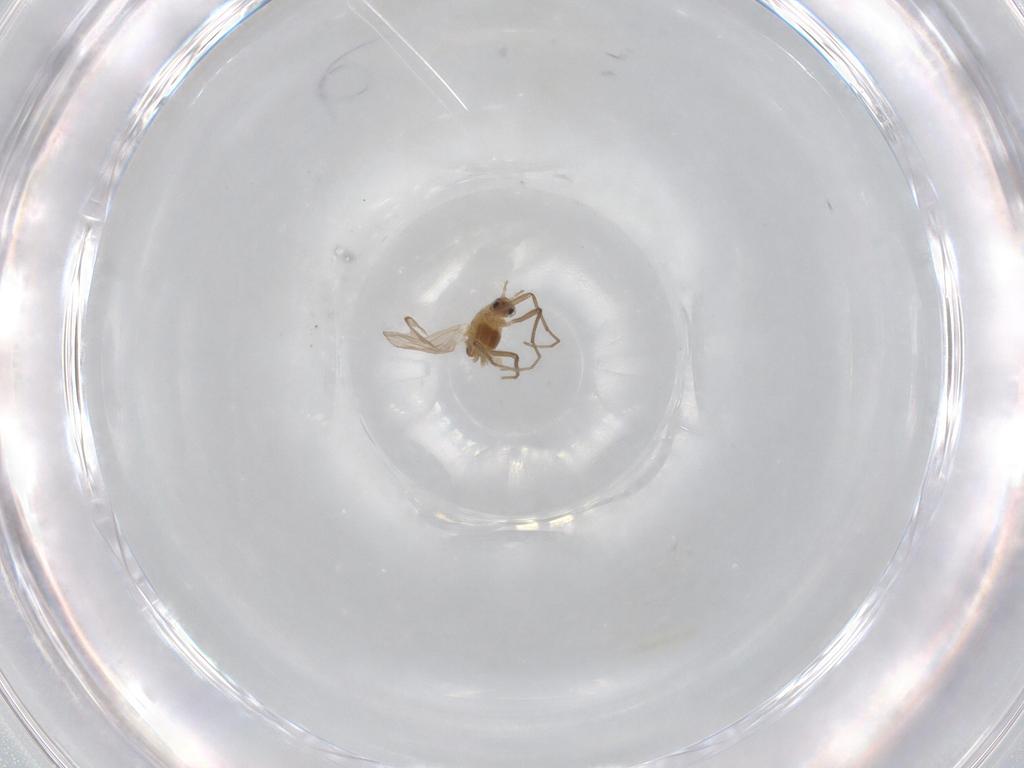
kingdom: Animalia
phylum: Arthropoda
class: Insecta
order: Diptera
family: Chironomidae
